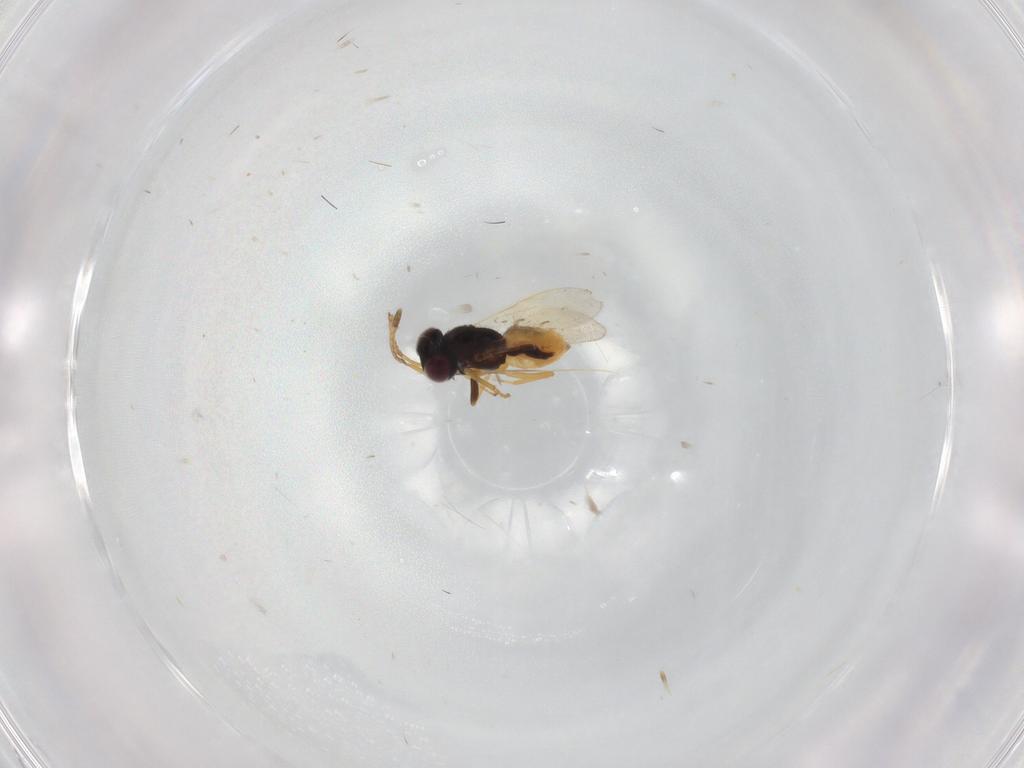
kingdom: Animalia
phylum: Arthropoda
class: Insecta
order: Hymenoptera
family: Encyrtidae
